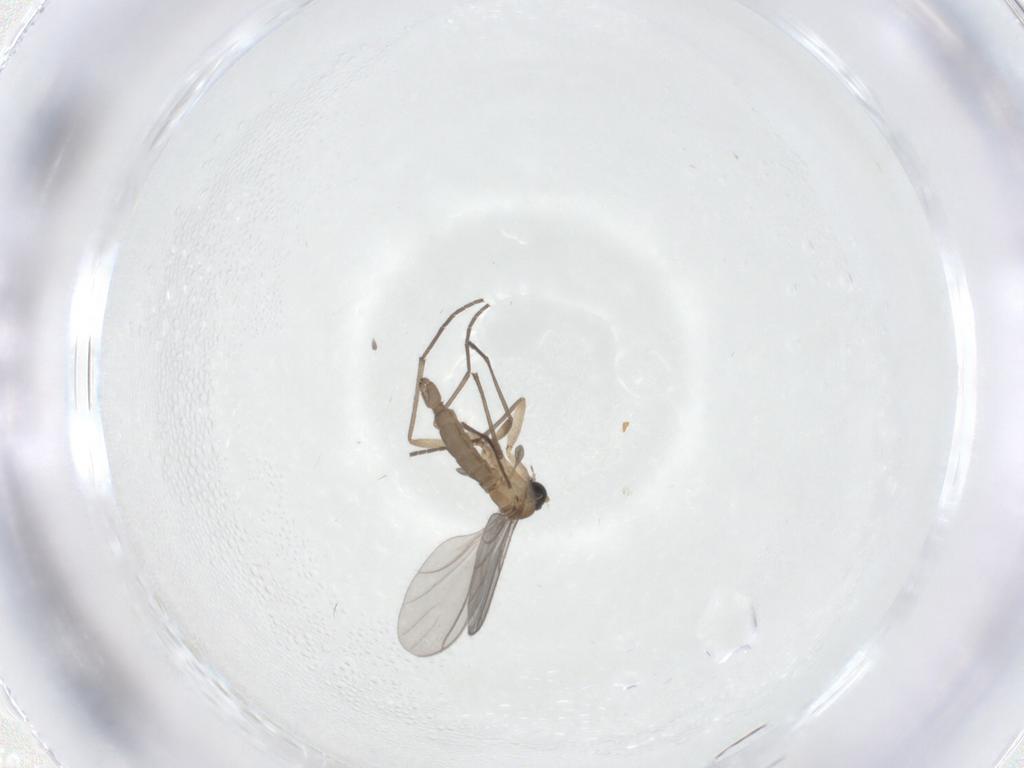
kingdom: Animalia
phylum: Arthropoda
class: Insecta
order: Diptera
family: Sciaridae
